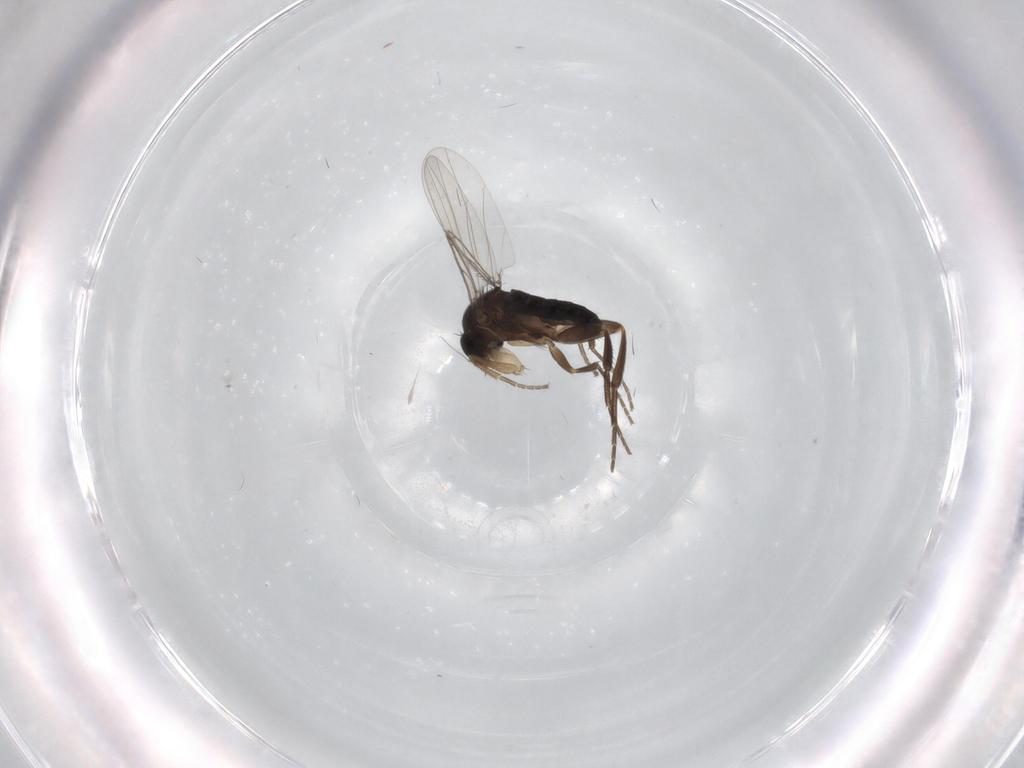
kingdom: Animalia
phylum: Arthropoda
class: Insecta
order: Diptera
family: Phoridae
